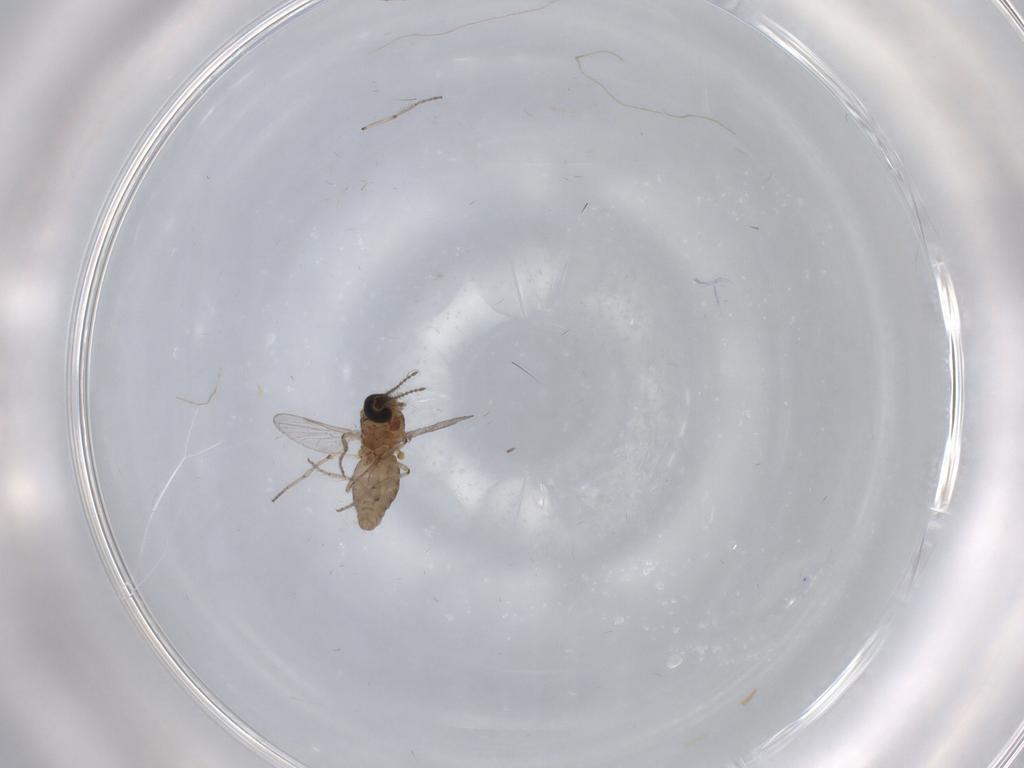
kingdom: Animalia
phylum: Arthropoda
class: Insecta
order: Diptera
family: Ceratopogonidae
